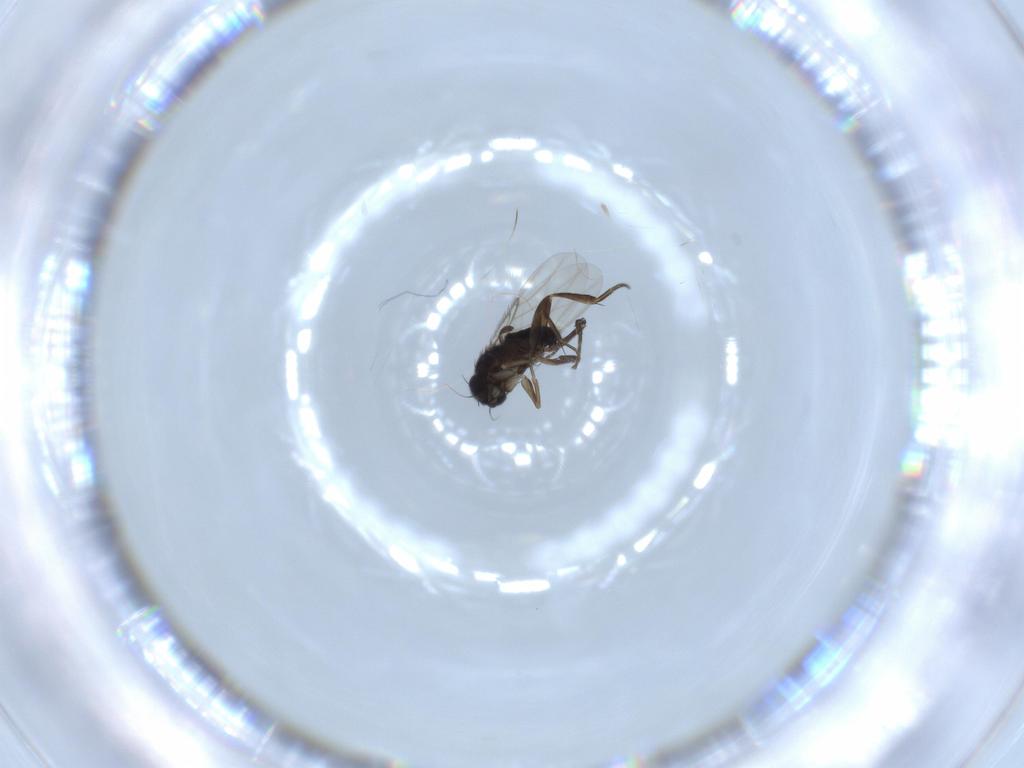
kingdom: Animalia
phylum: Arthropoda
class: Insecta
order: Diptera
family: Phoridae
